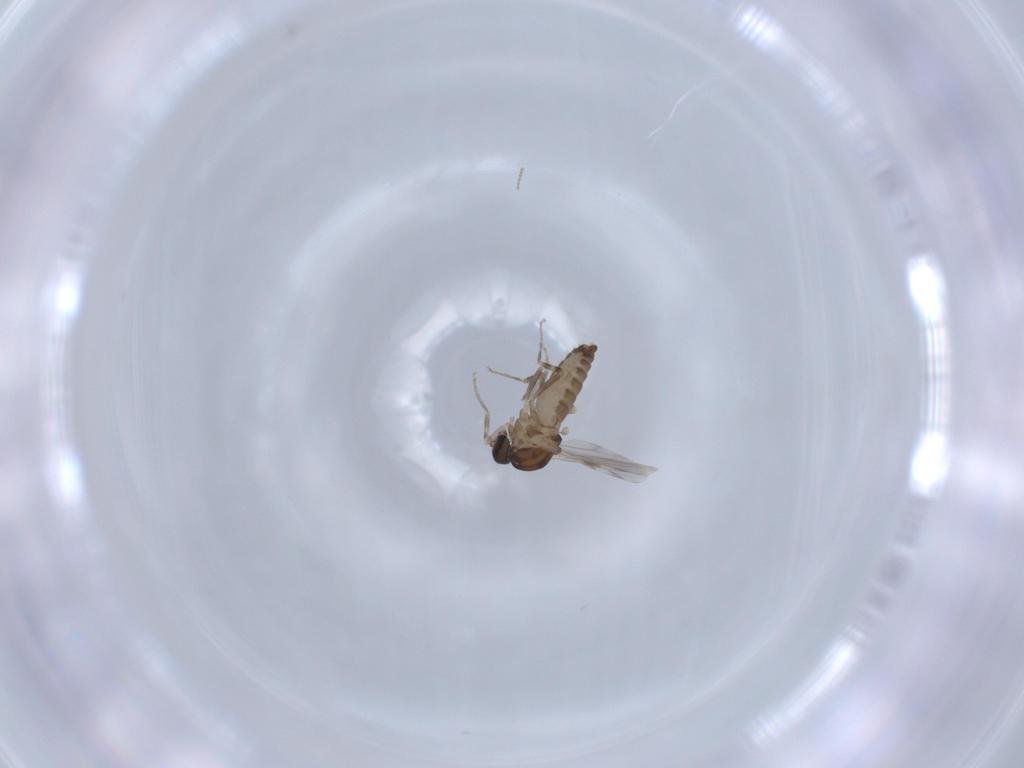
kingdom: Animalia
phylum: Arthropoda
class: Insecta
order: Diptera
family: Ceratopogonidae
